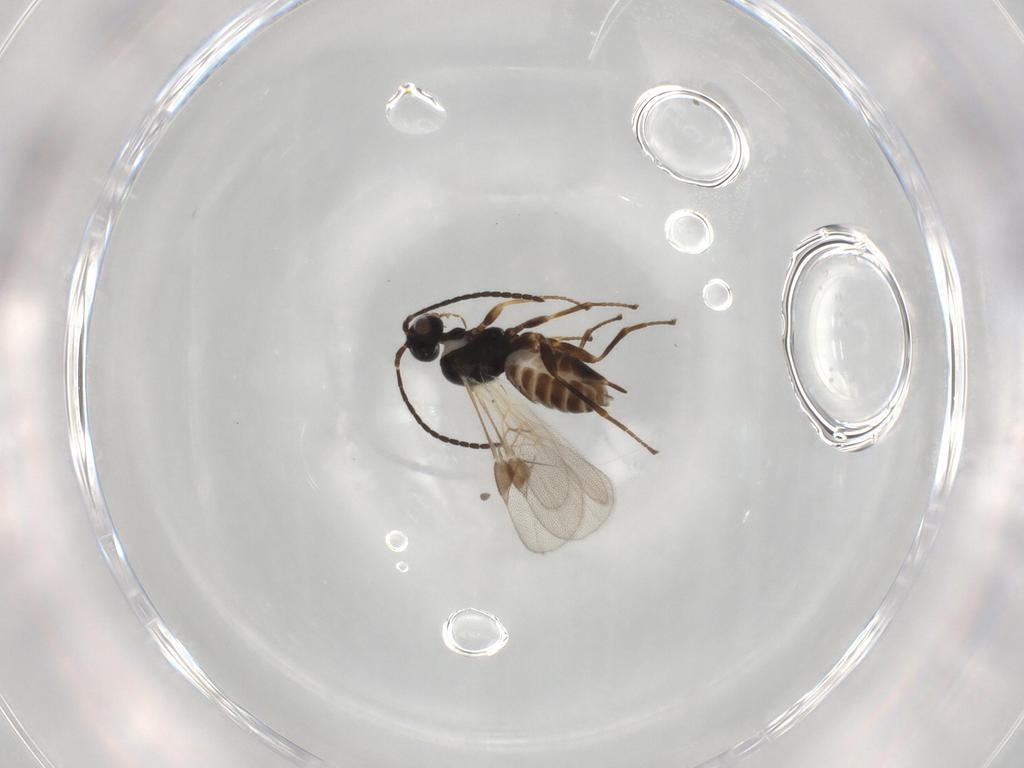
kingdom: Animalia
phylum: Arthropoda
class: Insecta
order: Hymenoptera
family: Braconidae
